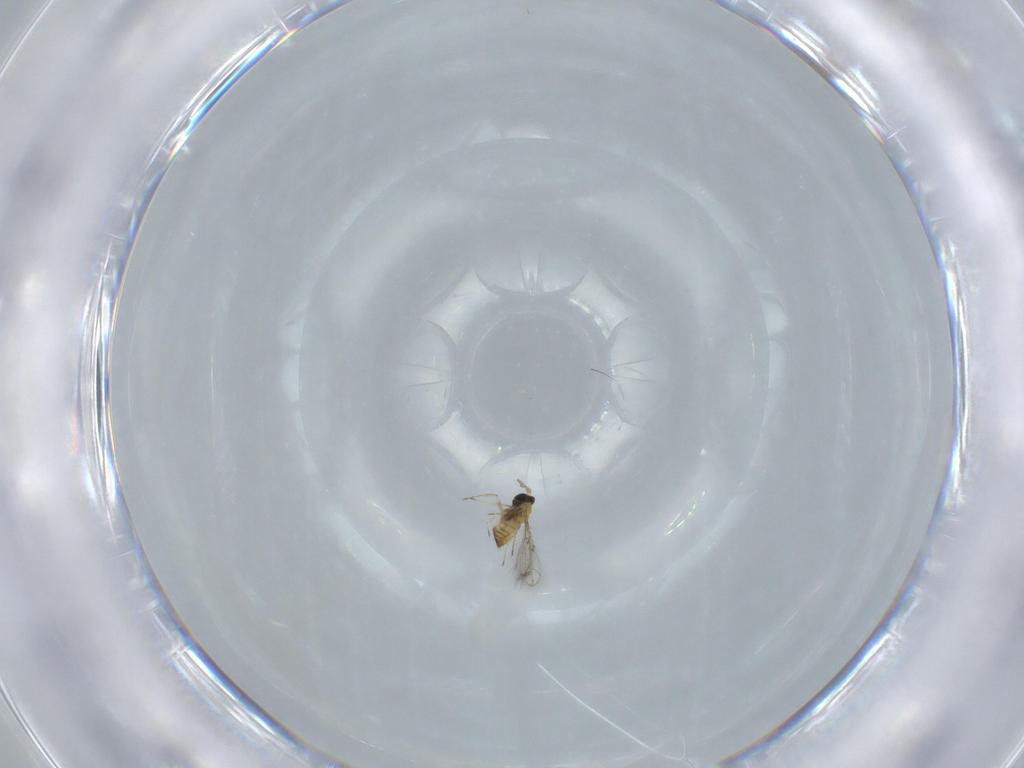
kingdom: Animalia
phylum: Arthropoda
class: Insecta
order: Hymenoptera
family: Trichogrammatidae
